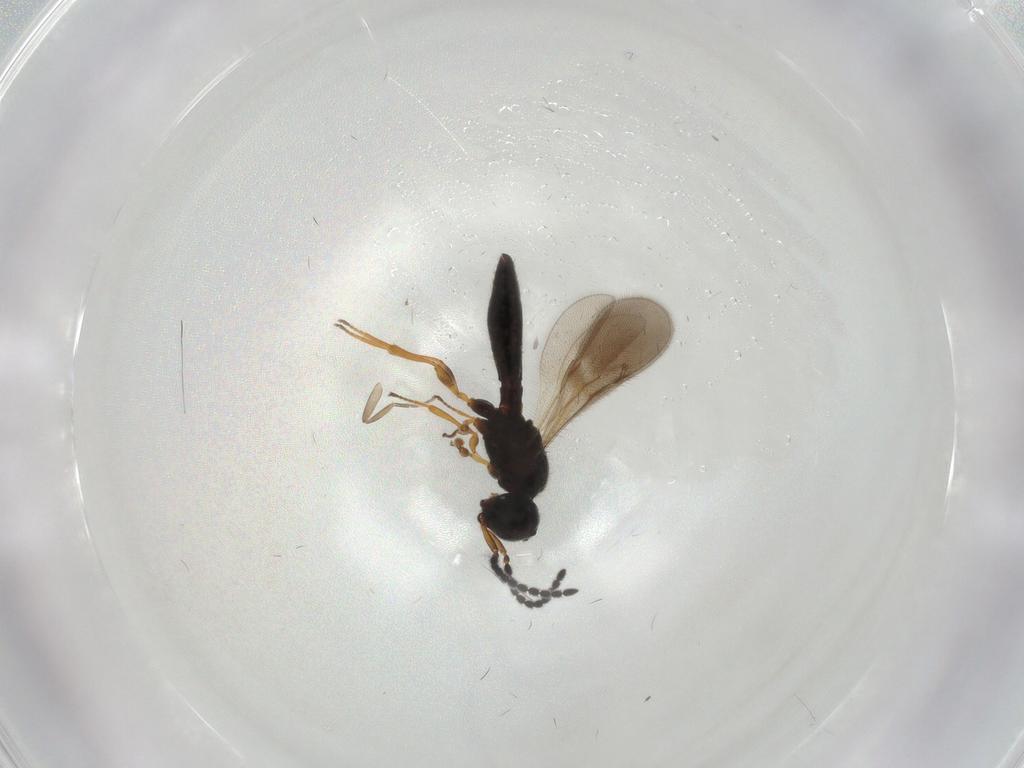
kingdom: Animalia
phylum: Arthropoda
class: Insecta
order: Hymenoptera
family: Scelionidae
